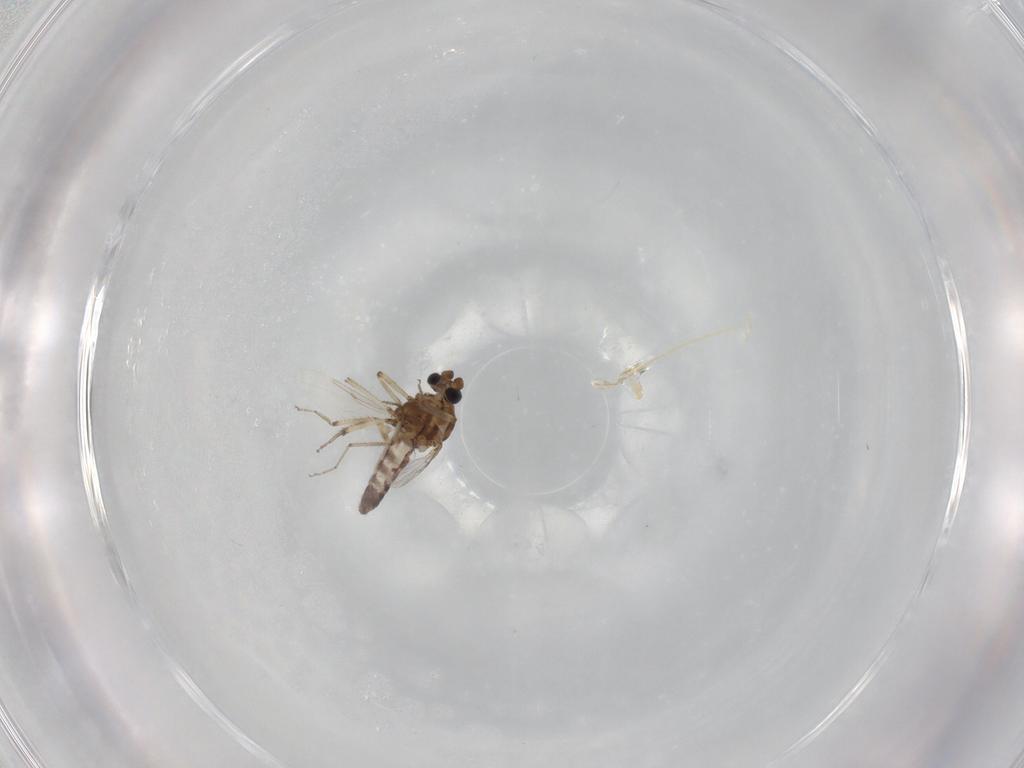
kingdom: Animalia
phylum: Arthropoda
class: Insecta
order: Diptera
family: Ceratopogonidae
